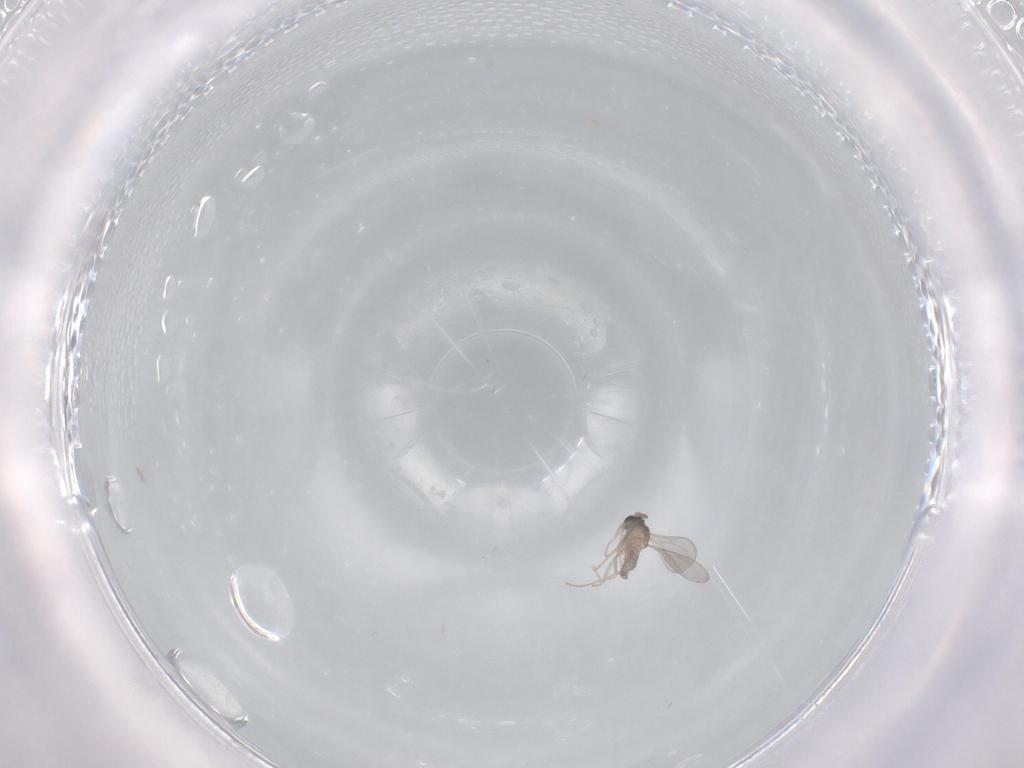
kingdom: Animalia
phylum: Arthropoda
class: Insecta
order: Diptera
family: Cecidomyiidae
